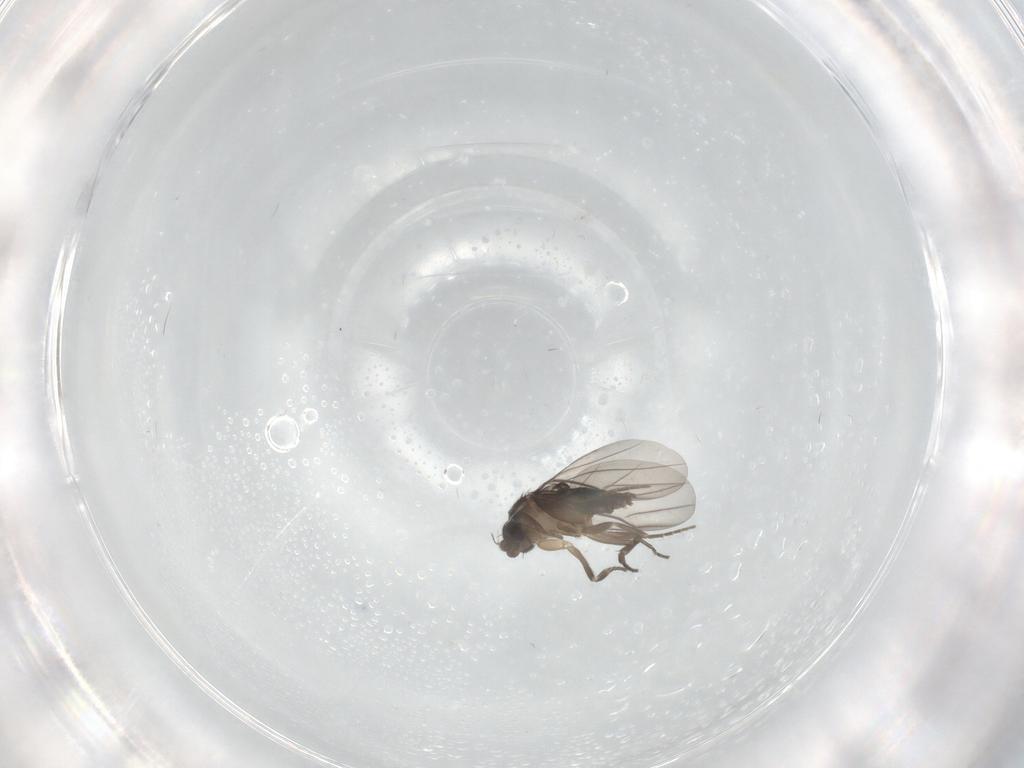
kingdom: Animalia
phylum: Arthropoda
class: Insecta
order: Diptera
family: Phoridae
